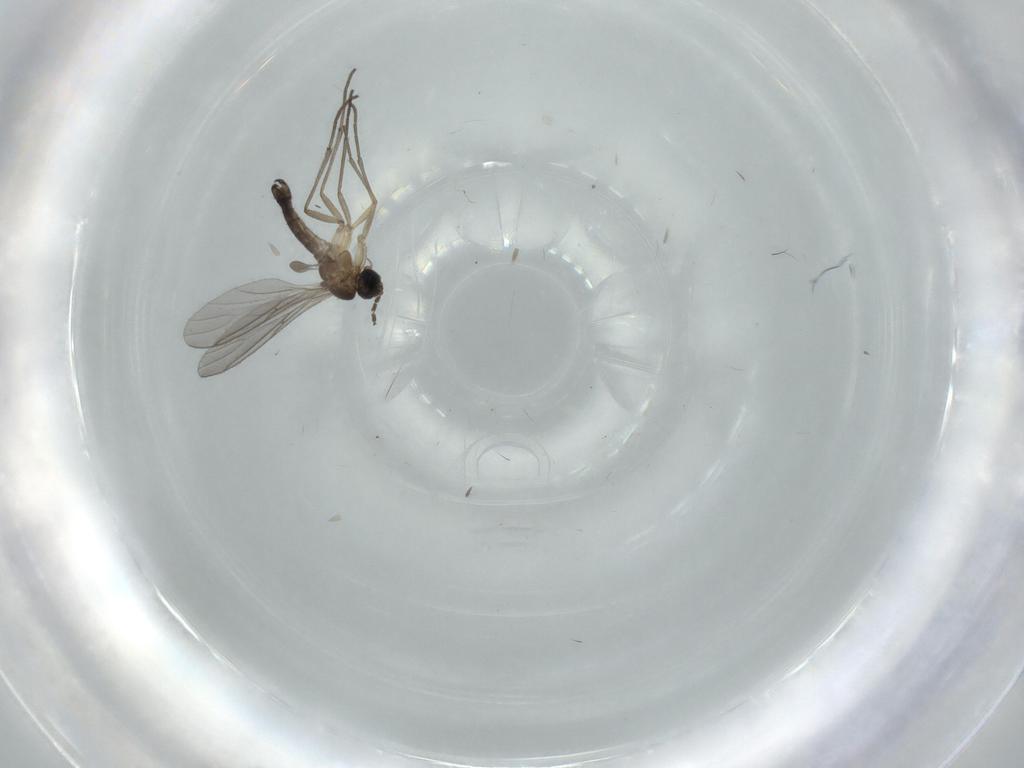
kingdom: Animalia
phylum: Arthropoda
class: Insecta
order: Diptera
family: Sciaridae
